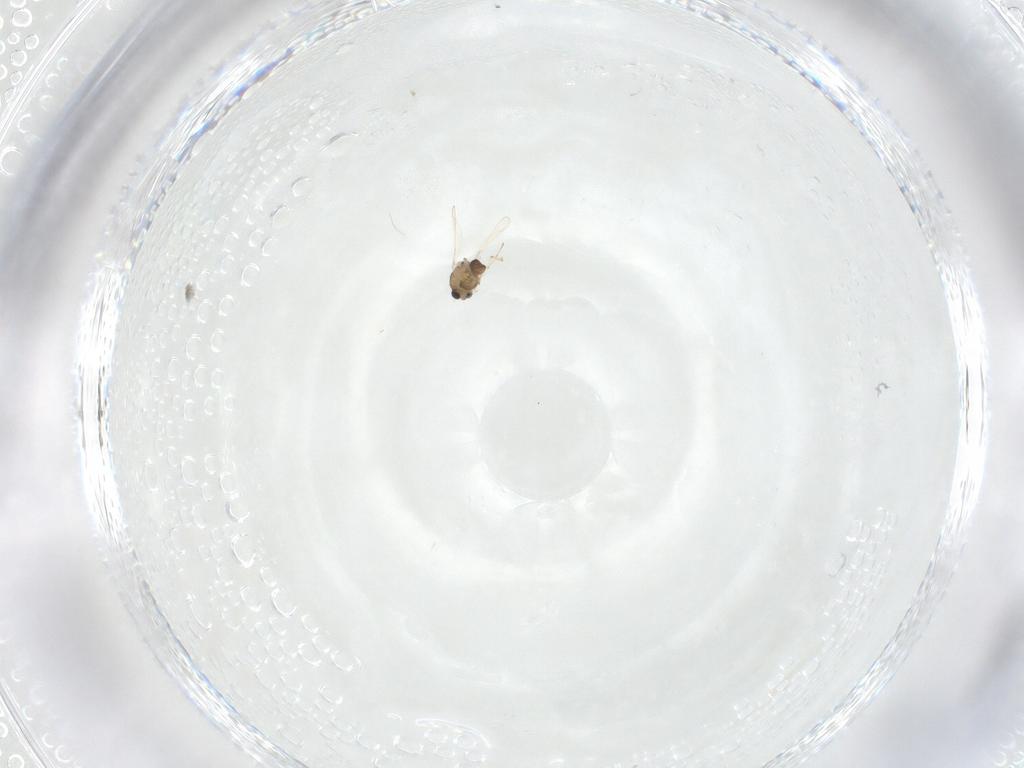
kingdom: Animalia
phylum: Arthropoda
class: Insecta
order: Diptera
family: Chironomidae
